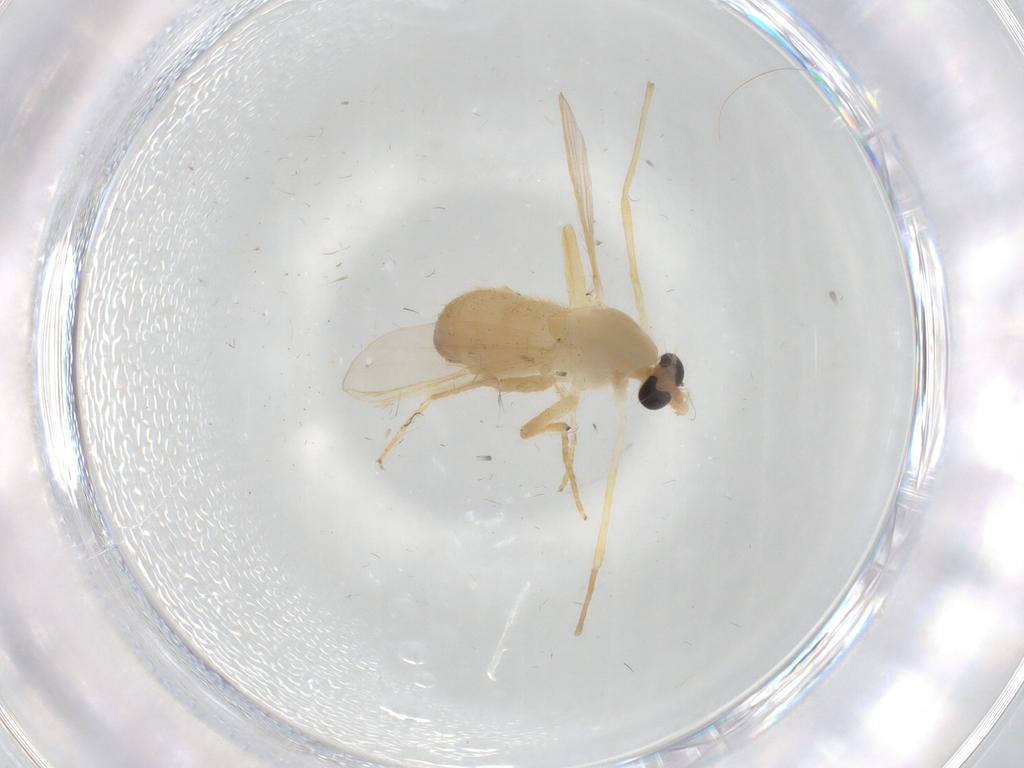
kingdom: Animalia
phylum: Arthropoda
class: Insecta
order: Diptera
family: Chironomidae
